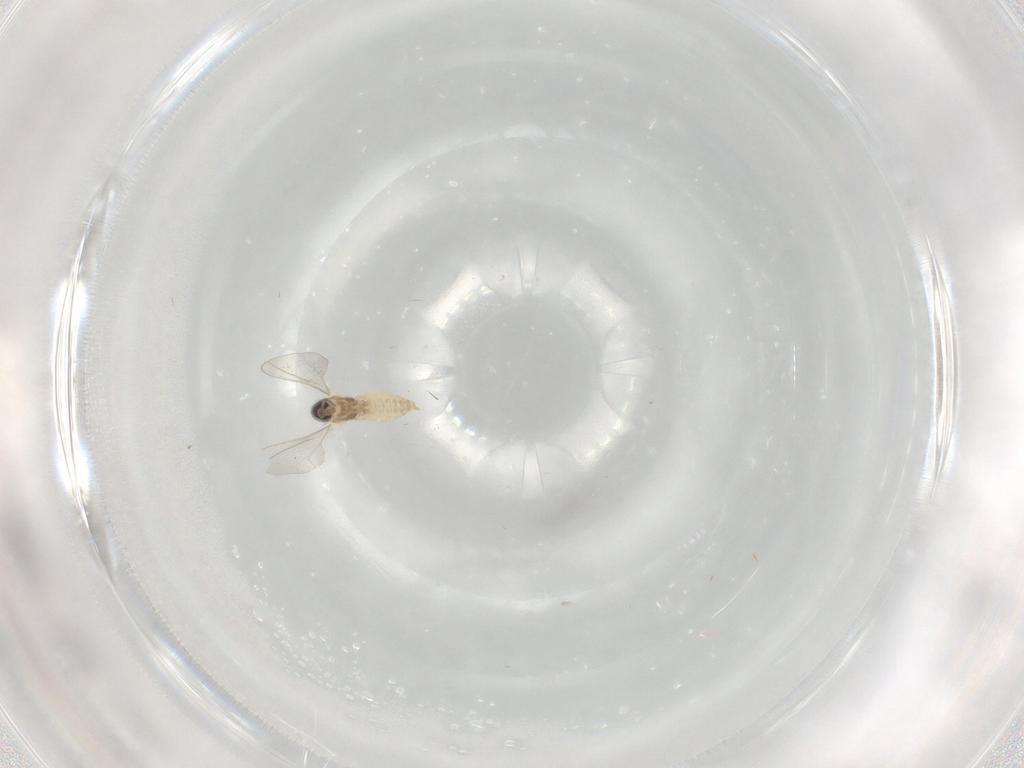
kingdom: Animalia
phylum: Arthropoda
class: Insecta
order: Diptera
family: Cecidomyiidae
